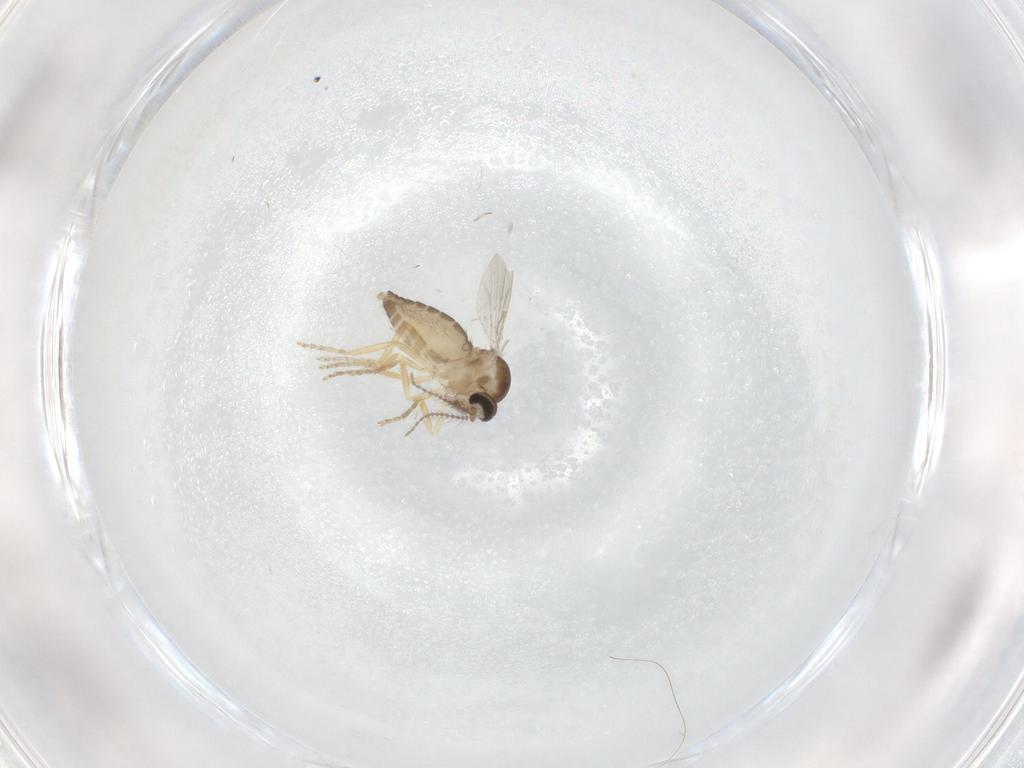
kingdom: Animalia
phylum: Arthropoda
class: Insecta
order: Diptera
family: Ceratopogonidae
